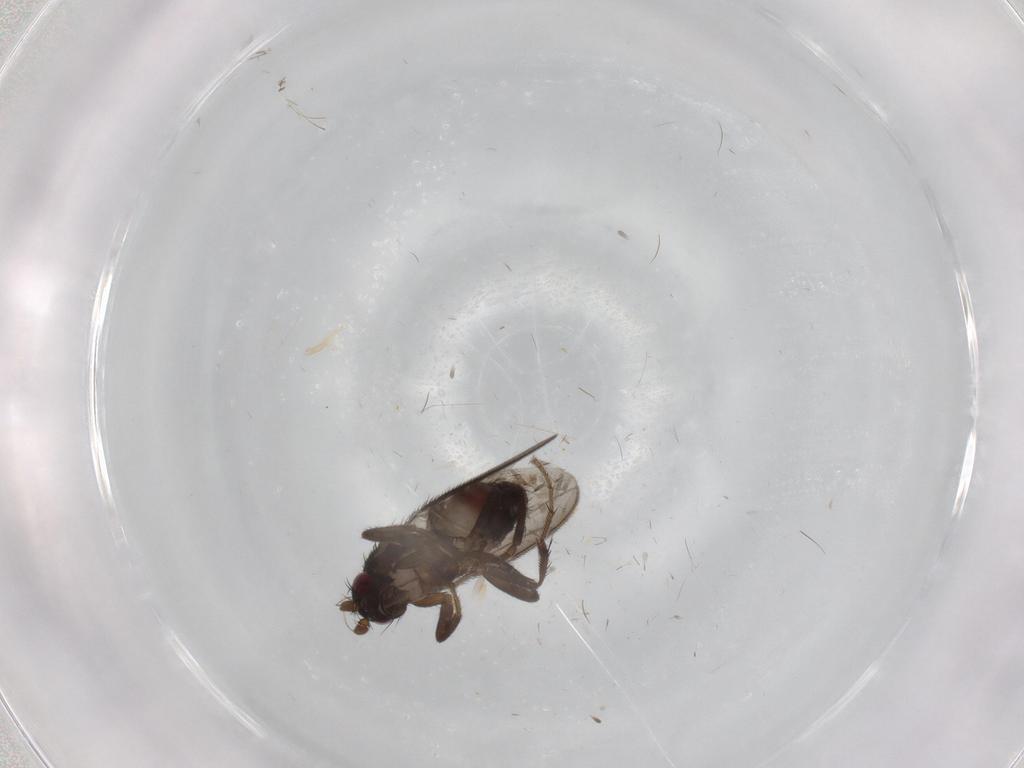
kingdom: Animalia
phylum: Arthropoda
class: Insecta
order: Diptera
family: Sphaeroceridae
